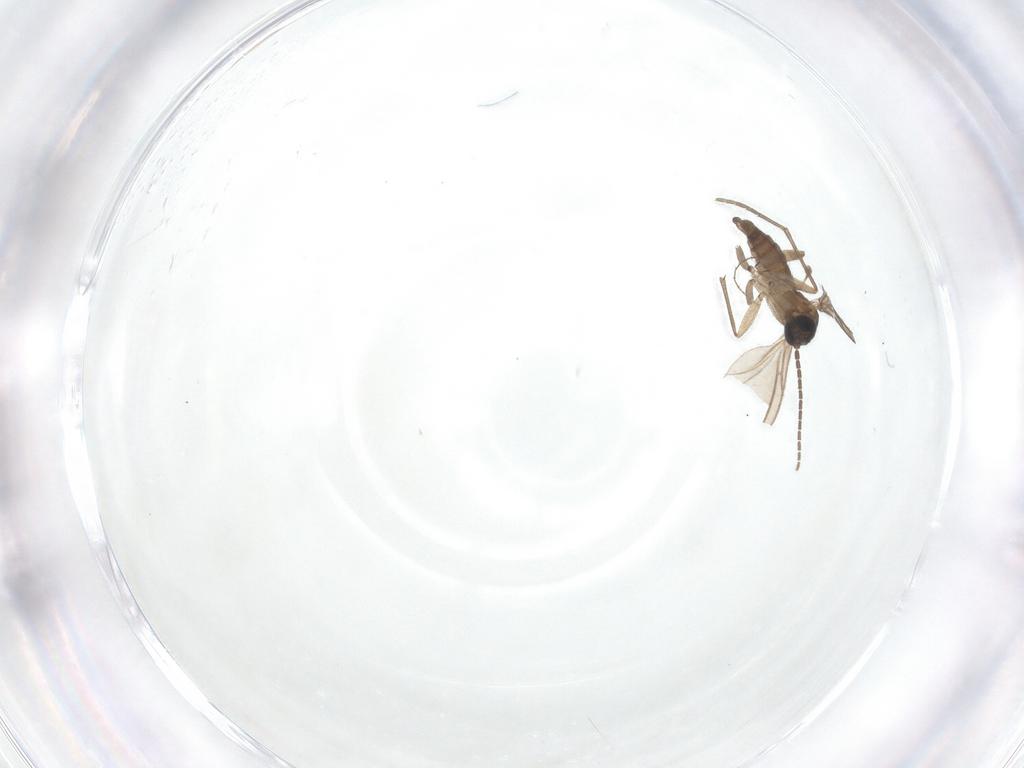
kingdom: Animalia
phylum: Arthropoda
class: Insecta
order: Diptera
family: Sciaridae
